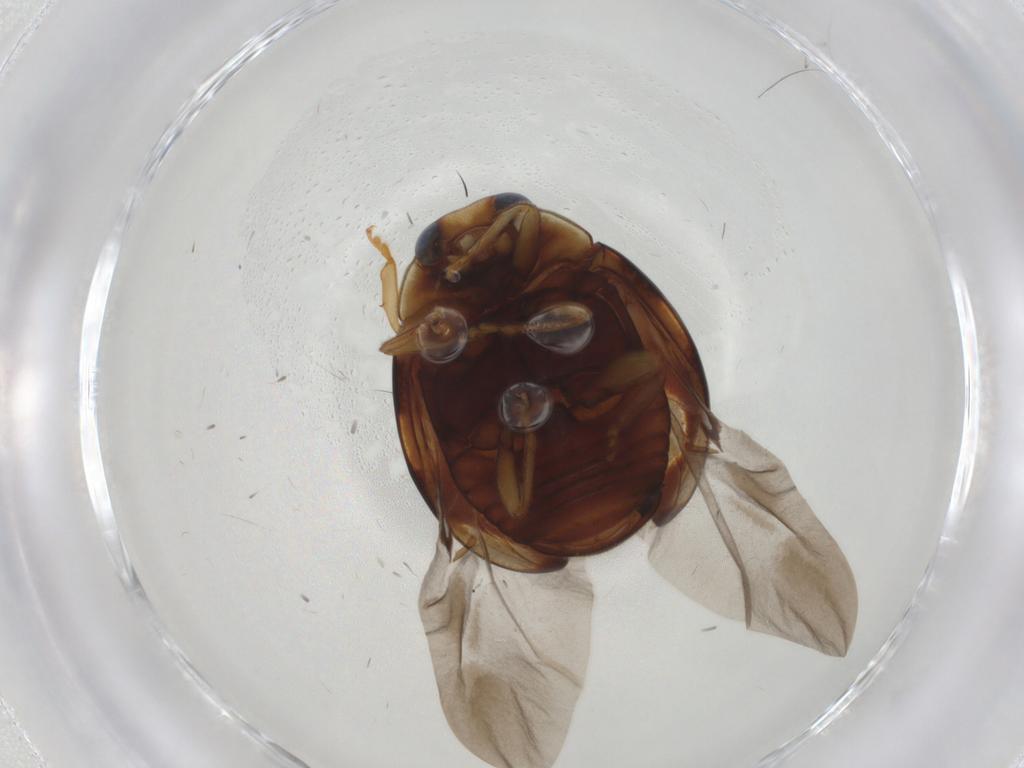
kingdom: Animalia
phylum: Arthropoda
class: Insecta
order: Coleoptera
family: Coccinellidae
